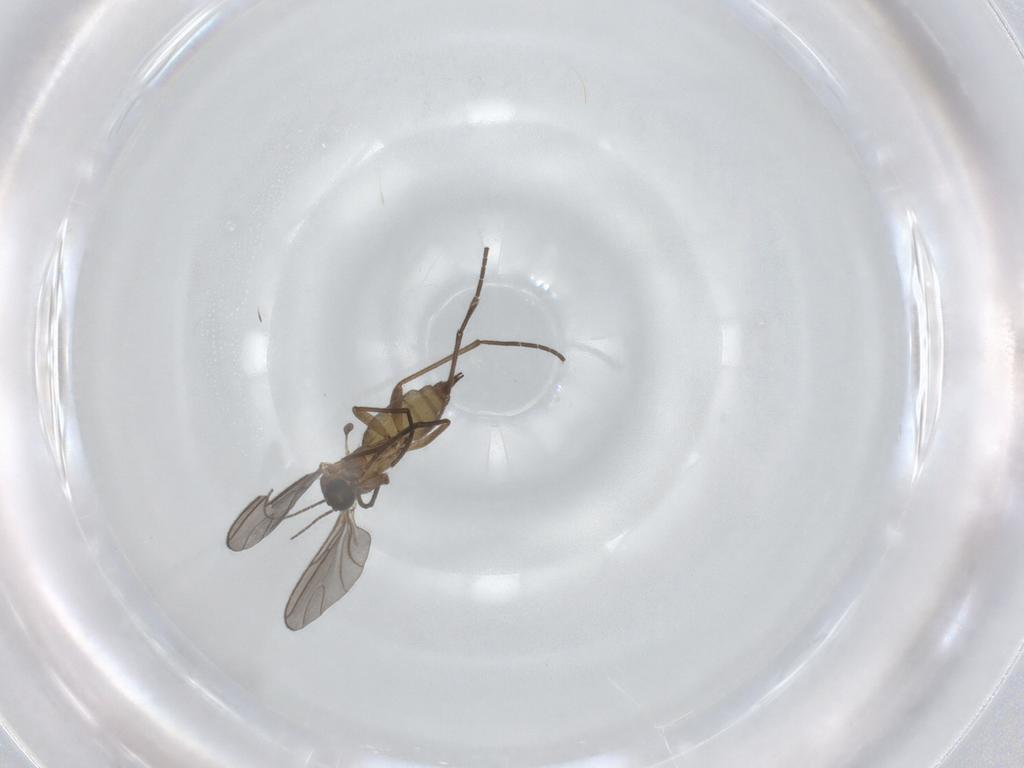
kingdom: Animalia
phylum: Arthropoda
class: Insecta
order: Diptera
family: Sciaridae
